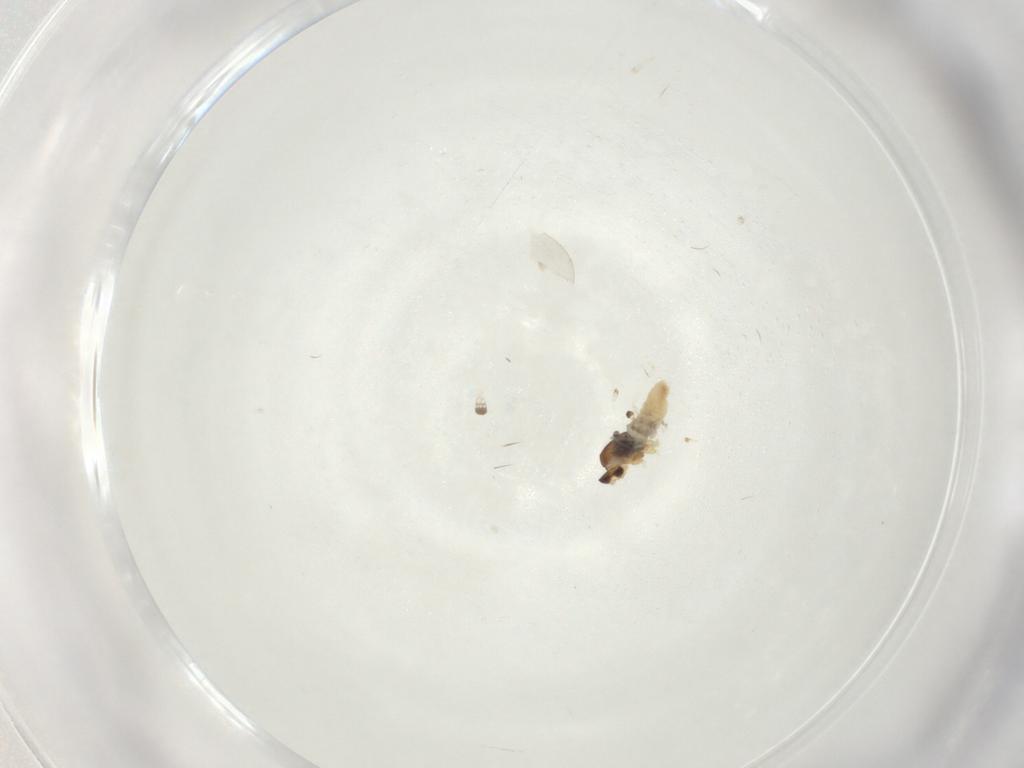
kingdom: Animalia
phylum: Arthropoda
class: Insecta
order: Diptera
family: Cecidomyiidae
